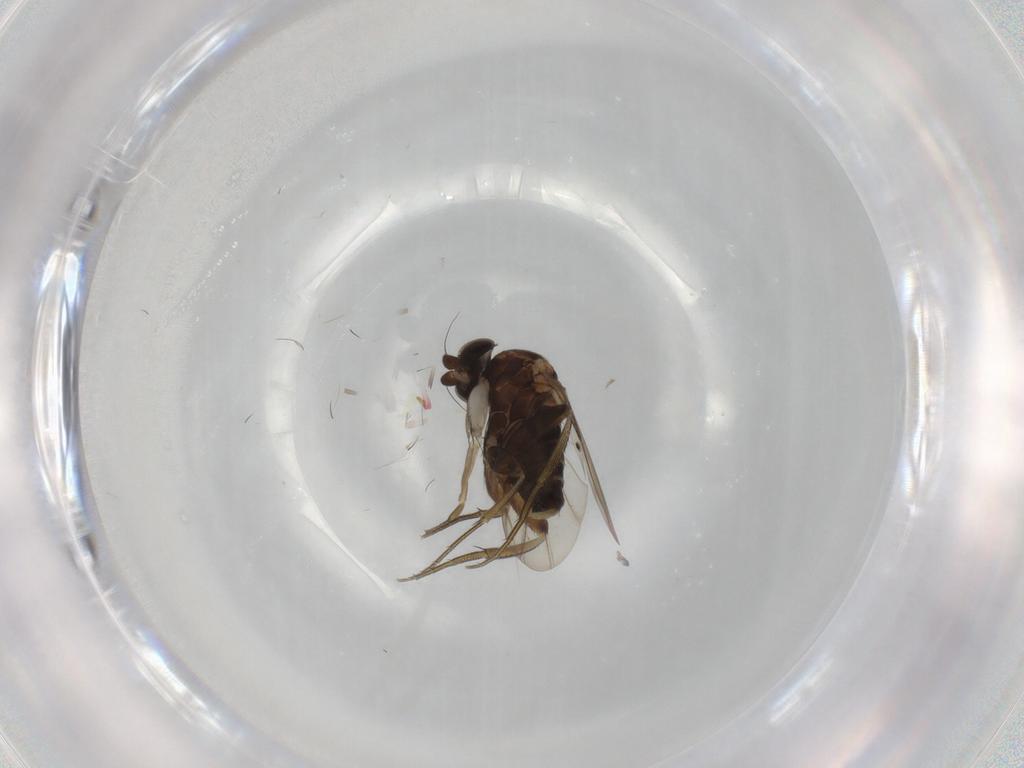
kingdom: Animalia
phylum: Arthropoda
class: Insecta
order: Diptera
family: Phoridae
